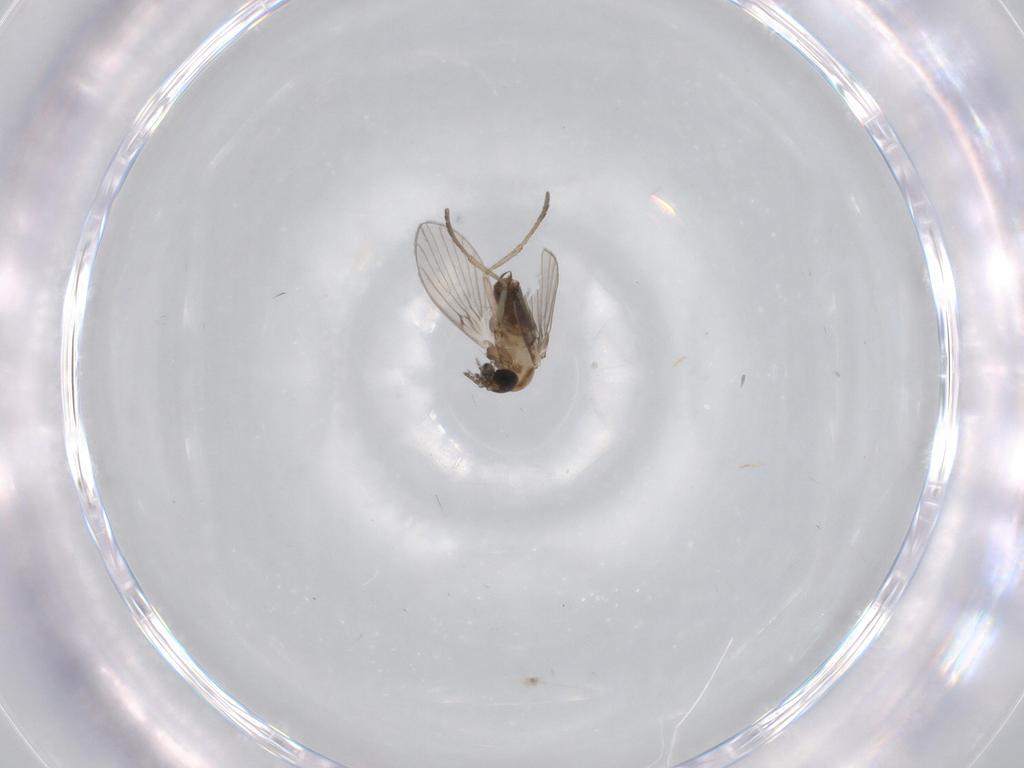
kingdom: Animalia
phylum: Arthropoda
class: Insecta
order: Diptera
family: Psychodidae
